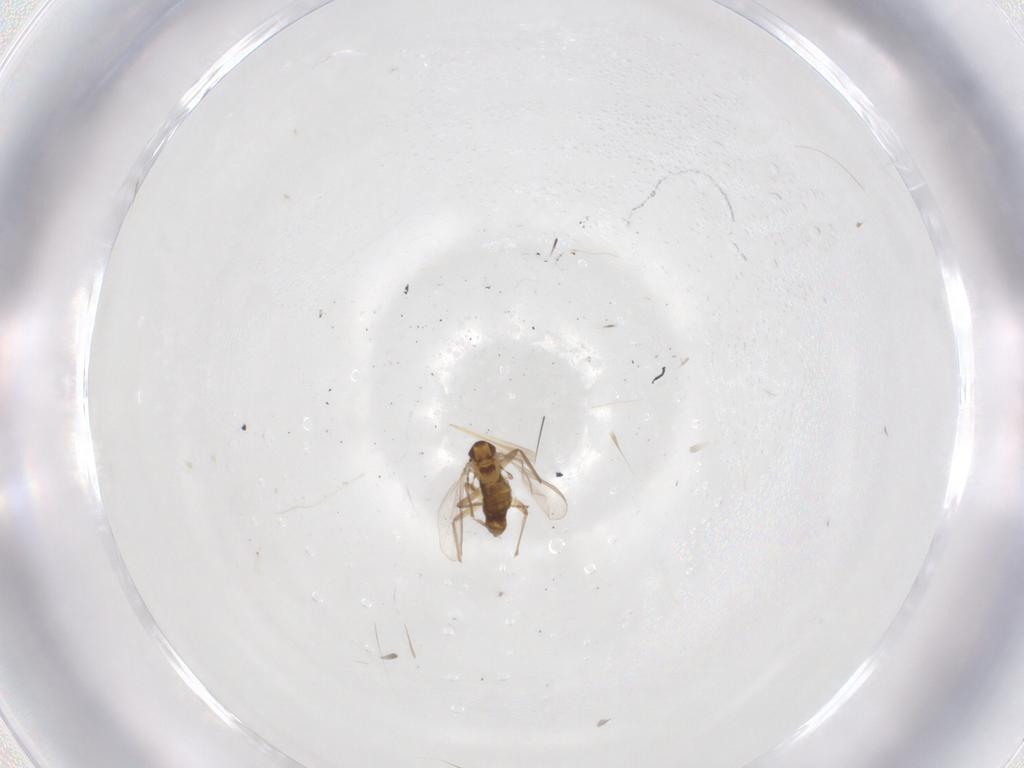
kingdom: Animalia
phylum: Arthropoda
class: Insecta
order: Diptera
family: Chironomidae
